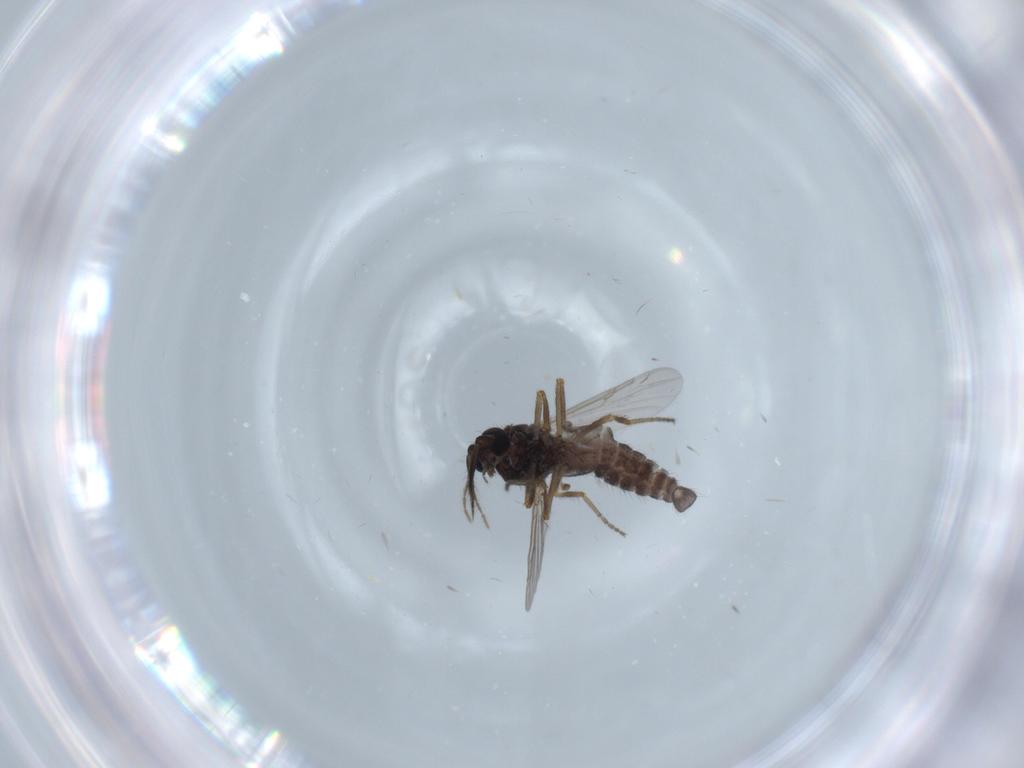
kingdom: Animalia
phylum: Arthropoda
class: Insecta
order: Diptera
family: Ceratopogonidae
